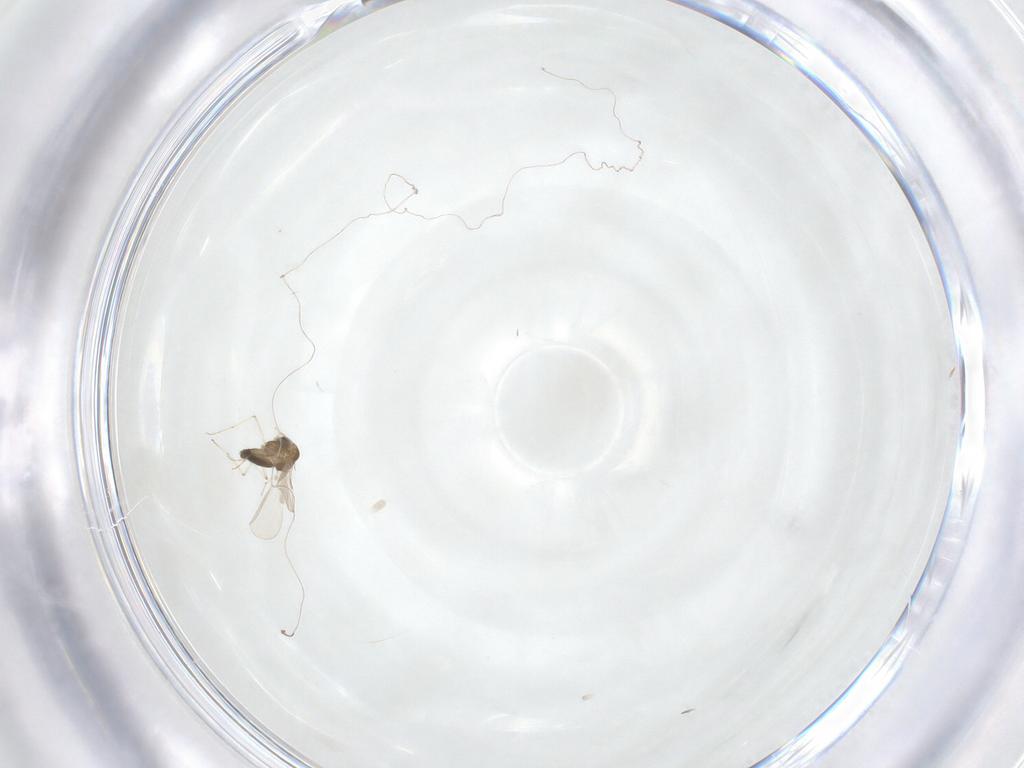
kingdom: Animalia
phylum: Arthropoda
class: Insecta
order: Diptera
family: Chironomidae
